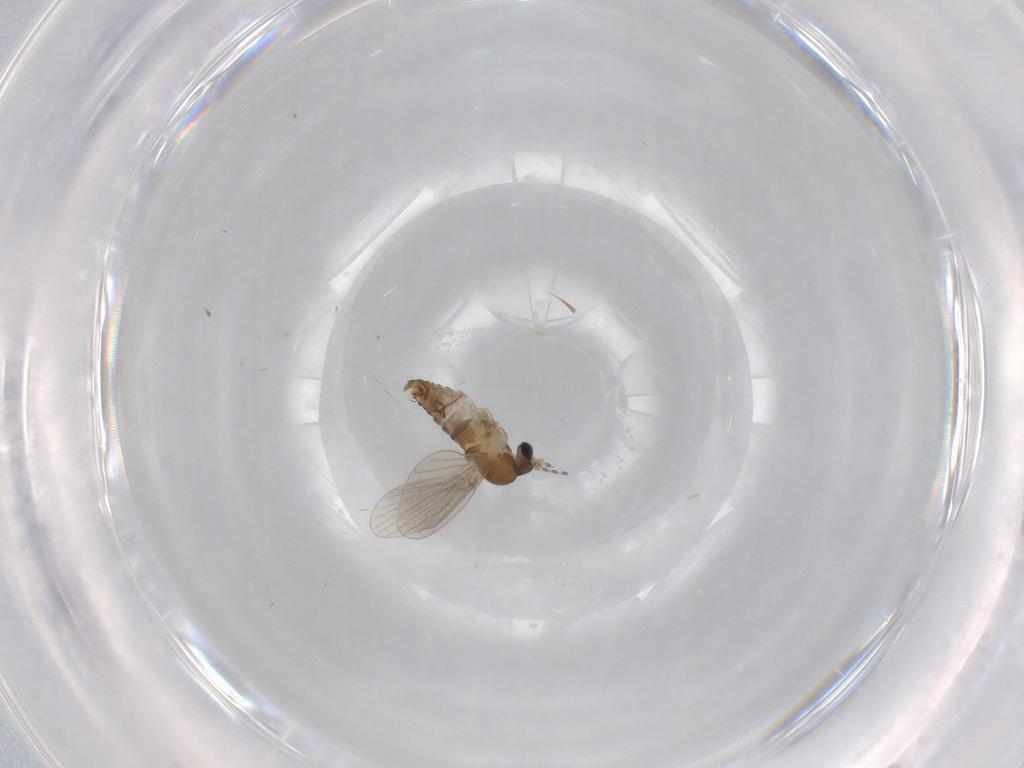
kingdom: Animalia
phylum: Arthropoda
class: Insecta
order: Diptera
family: Psychodidae
